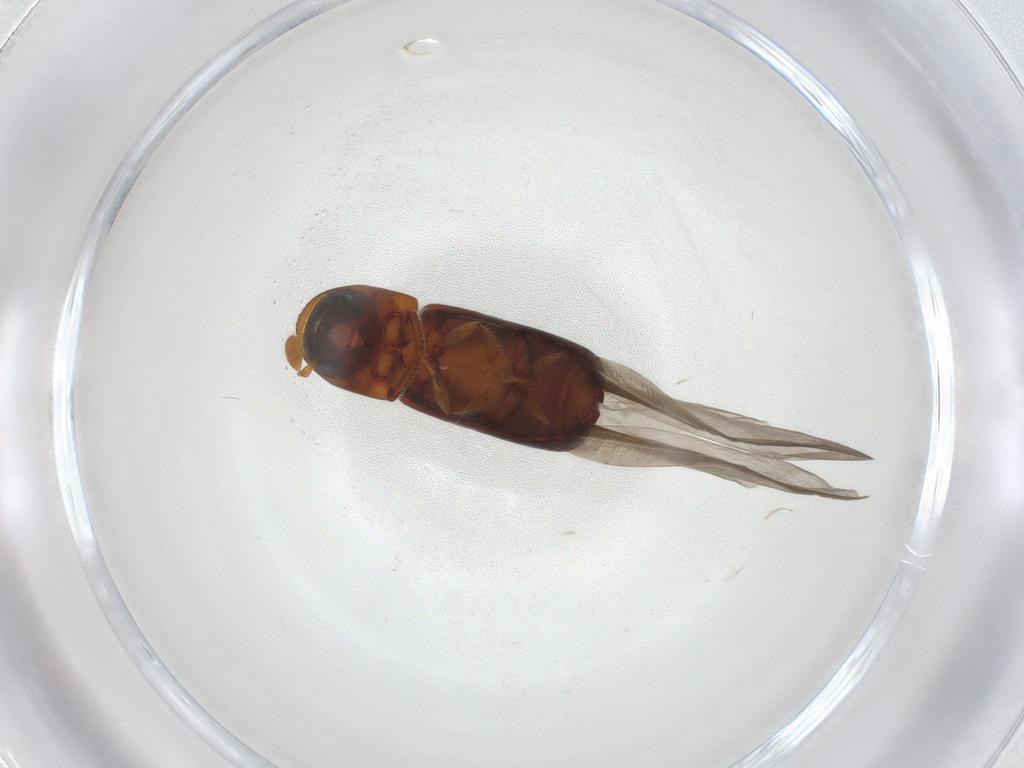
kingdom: Animalia
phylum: Arthropoda
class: Insecta
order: Coleoptera
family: Curculionidae
